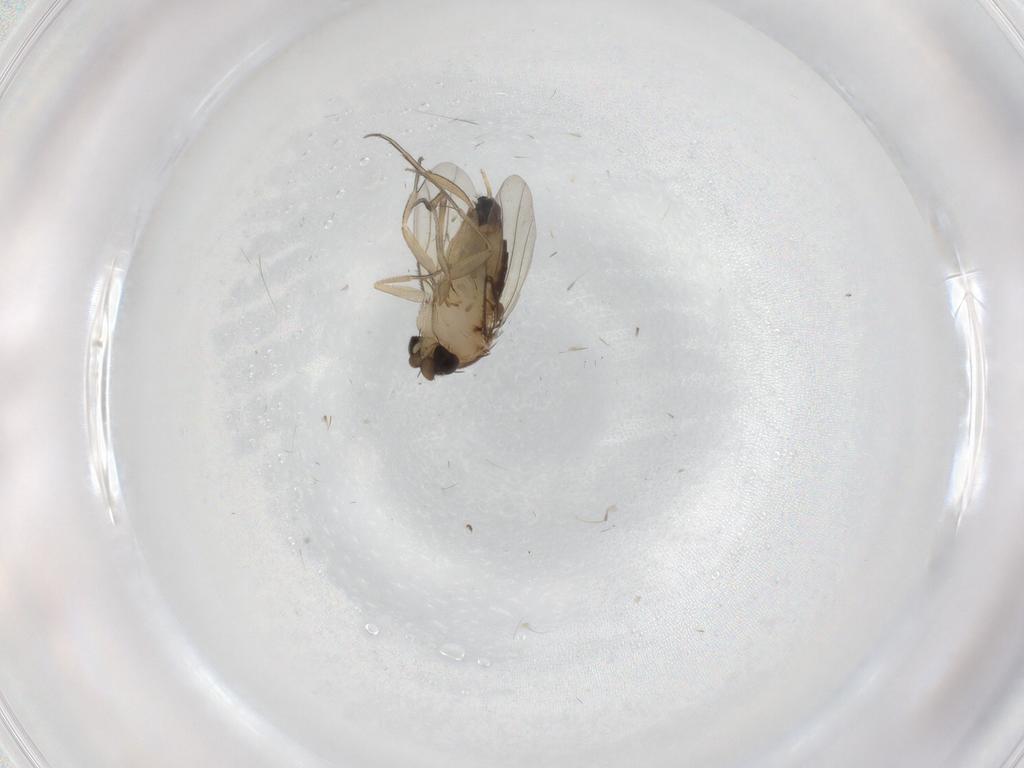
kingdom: Animalia
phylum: Arthropoda
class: Insecta
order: Diptera
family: Phoridae
